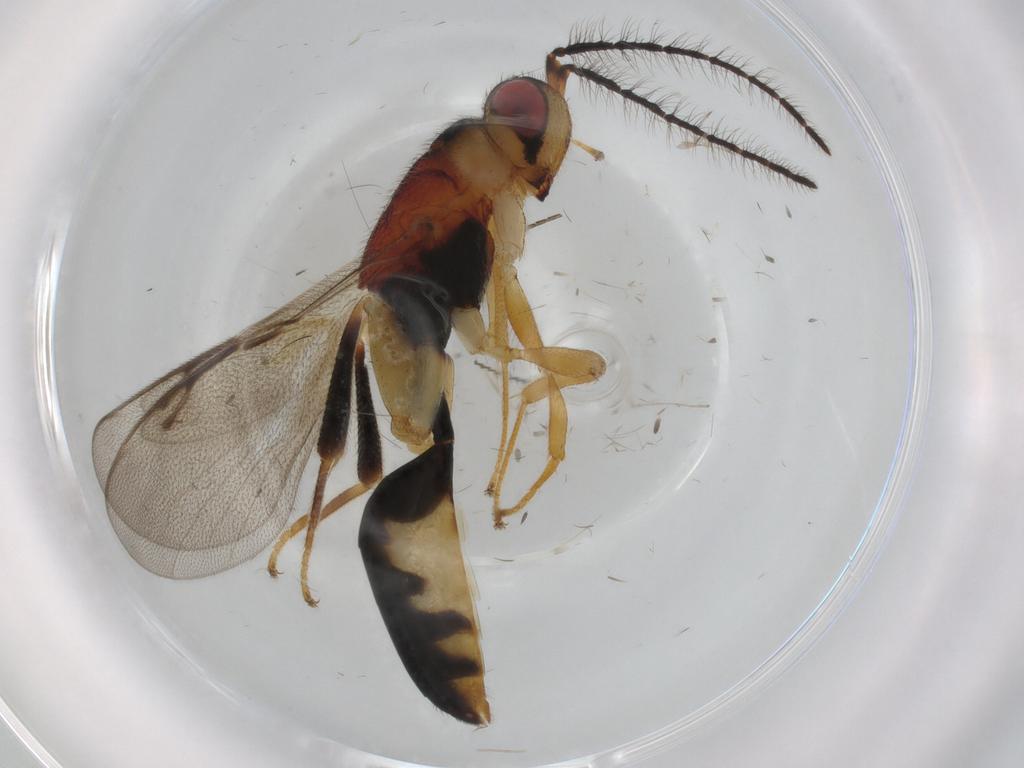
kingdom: Animalia
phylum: Arthropoda
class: Insecta
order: Hymenoptera
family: Eurytomidae
